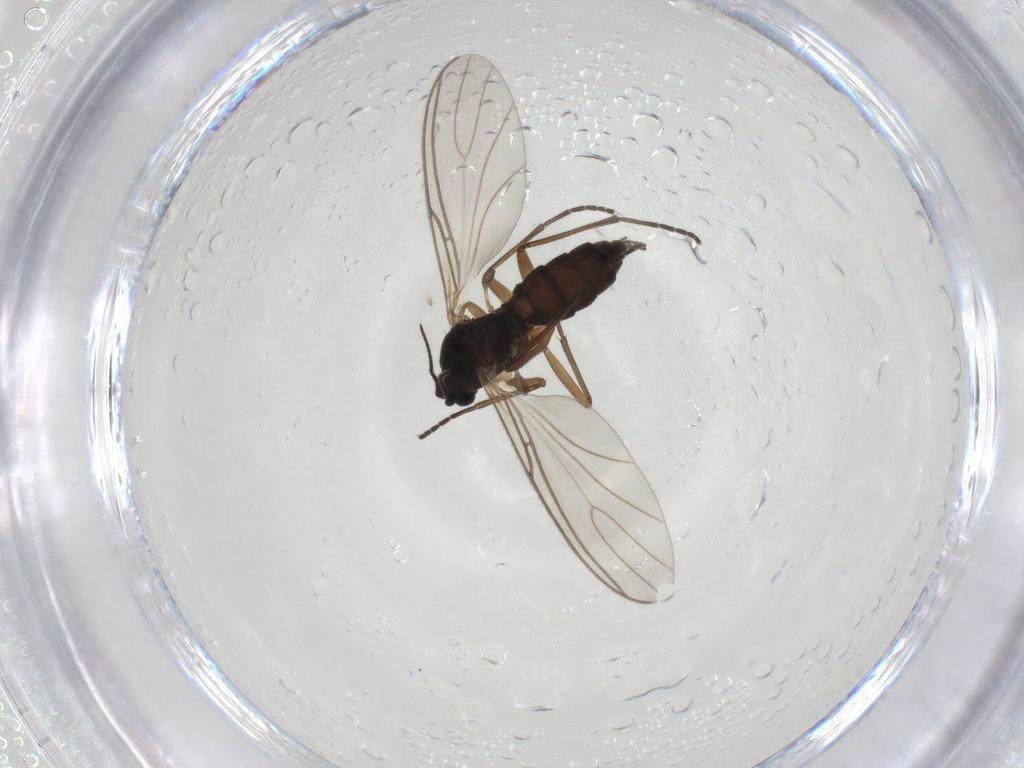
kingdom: Animalia
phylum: Arthropoda
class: Insecta
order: Diptera
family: Sciaridae
